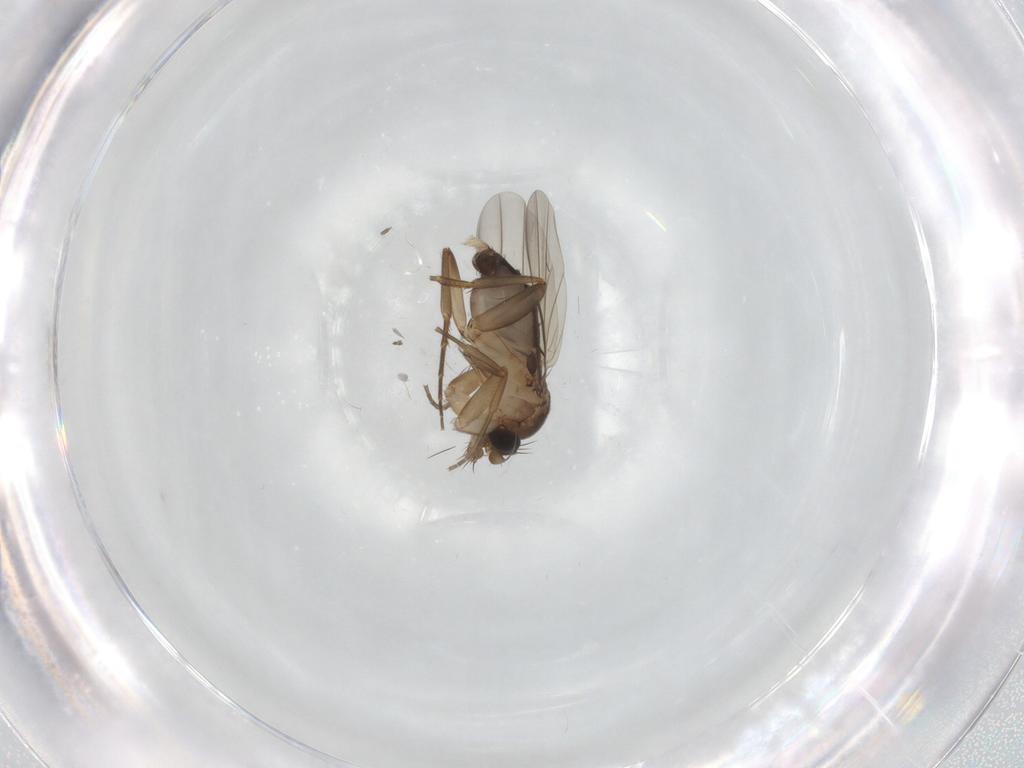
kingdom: Animalia
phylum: Arthropoda
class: Insecta
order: Diptera
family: Phoridae
